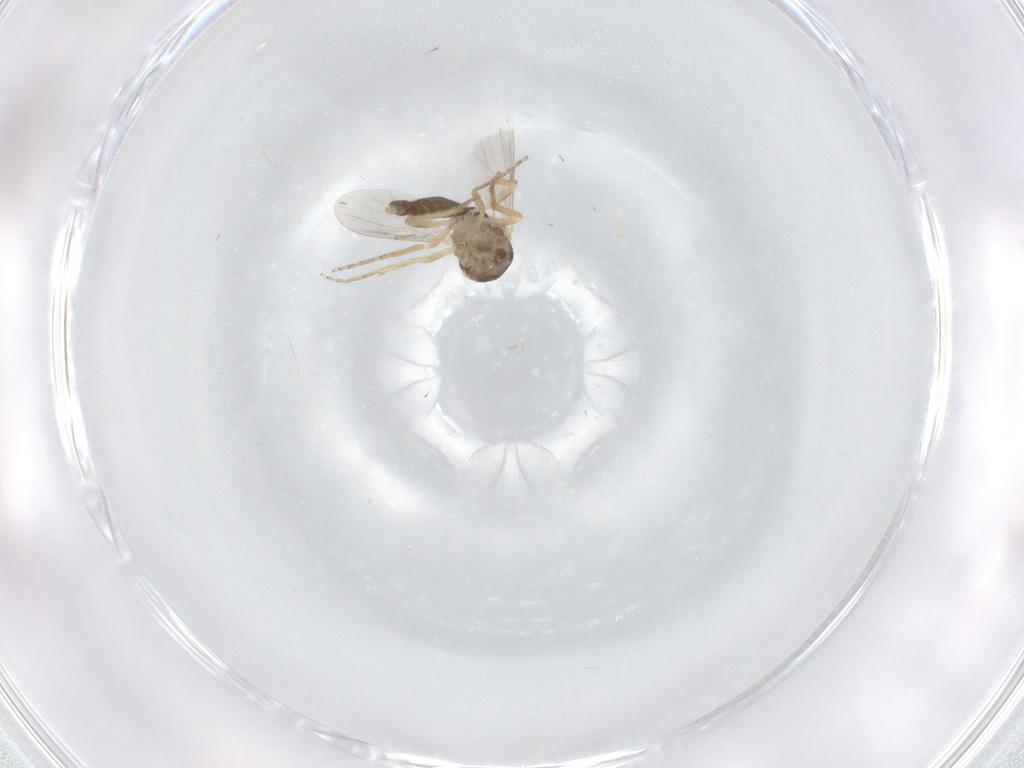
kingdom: Animalia
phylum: Arthropoda
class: Insecta
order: Diptera
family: Ceratopogonidae
